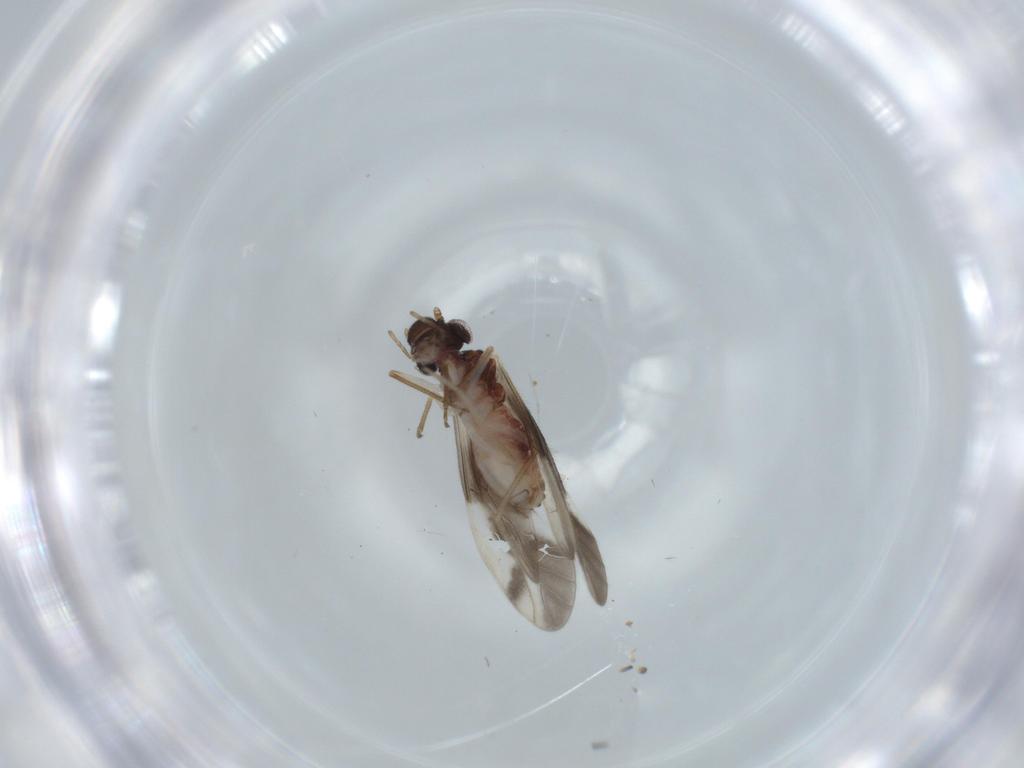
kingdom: Animalia
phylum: Arthropoda
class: Insecta
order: Psocodea
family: Caeciliusidae
